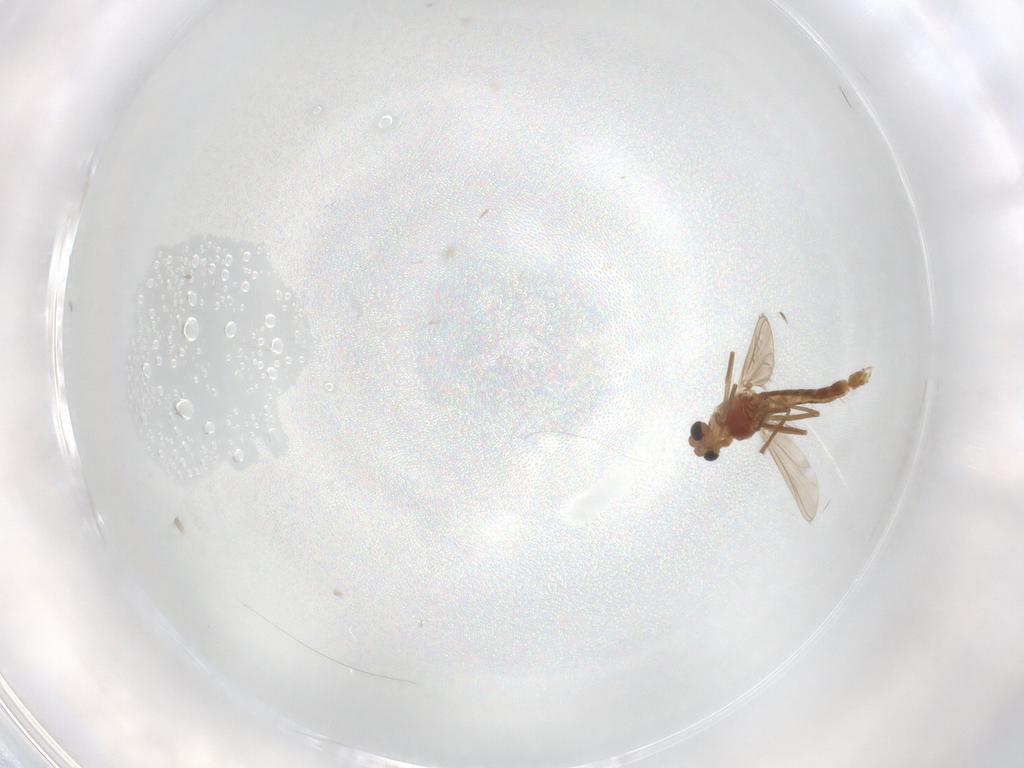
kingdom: Animalia
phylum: Arthropoda
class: Insecta
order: Diptera
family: Chironomidae
